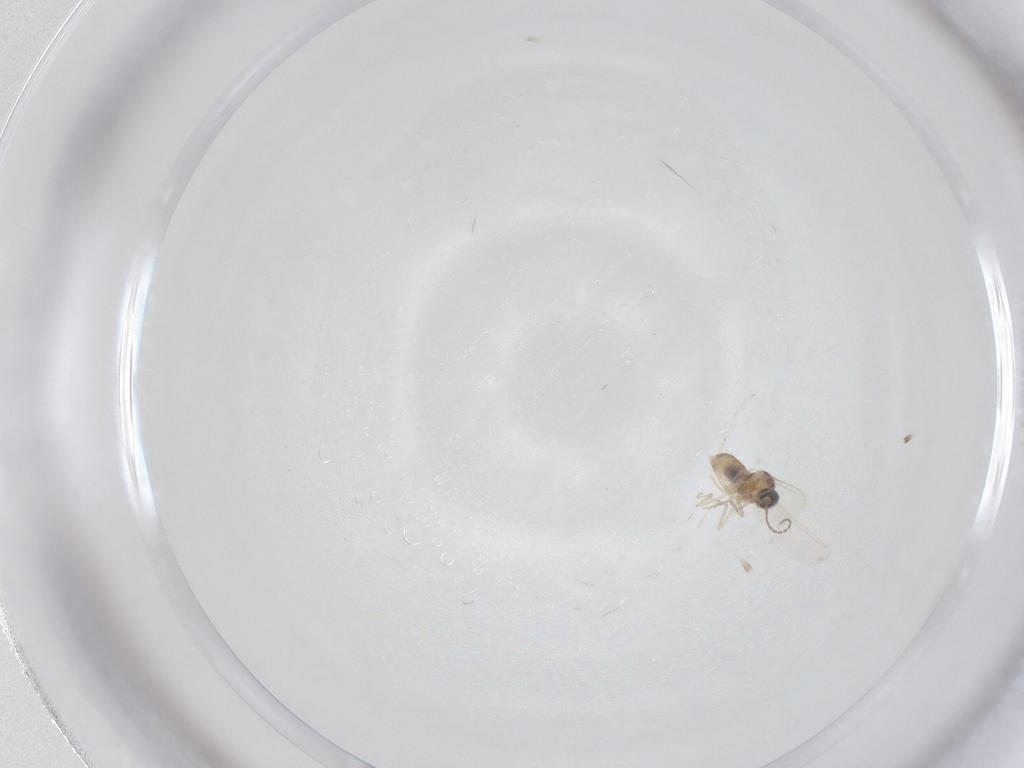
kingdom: Animalia
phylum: Arthropoda
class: Insecta
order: Diptera
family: Cecidomyiidae
